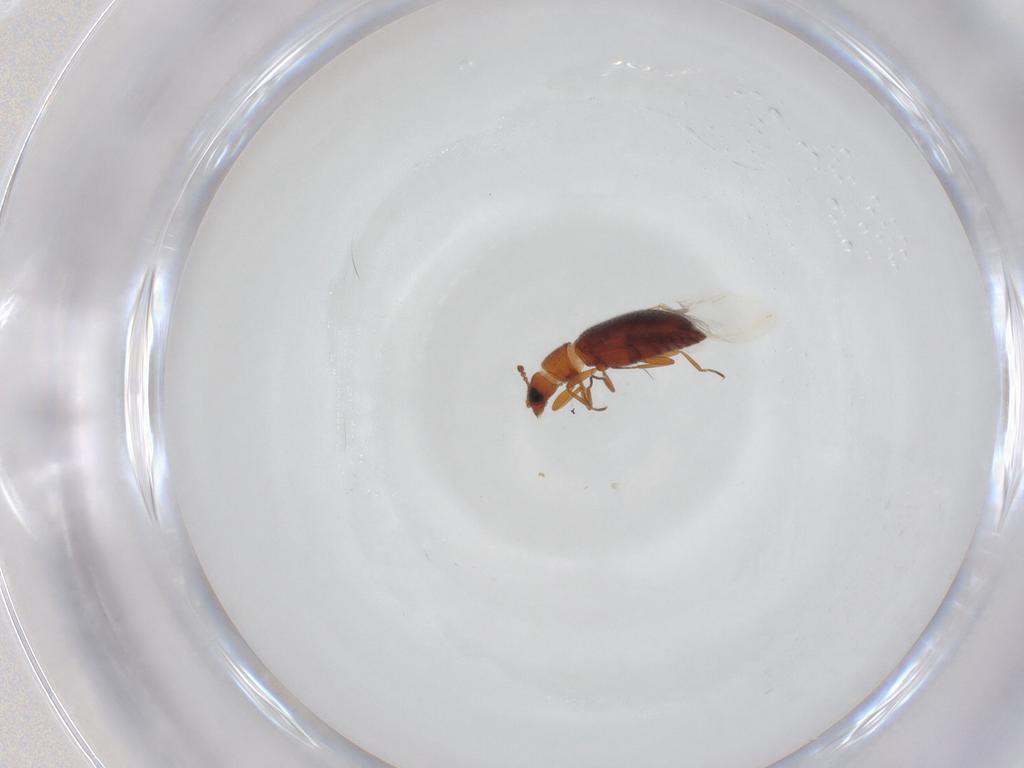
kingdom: Animalia
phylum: Arthropoda
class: Insecta
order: Coleoptera
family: Latridiidae
